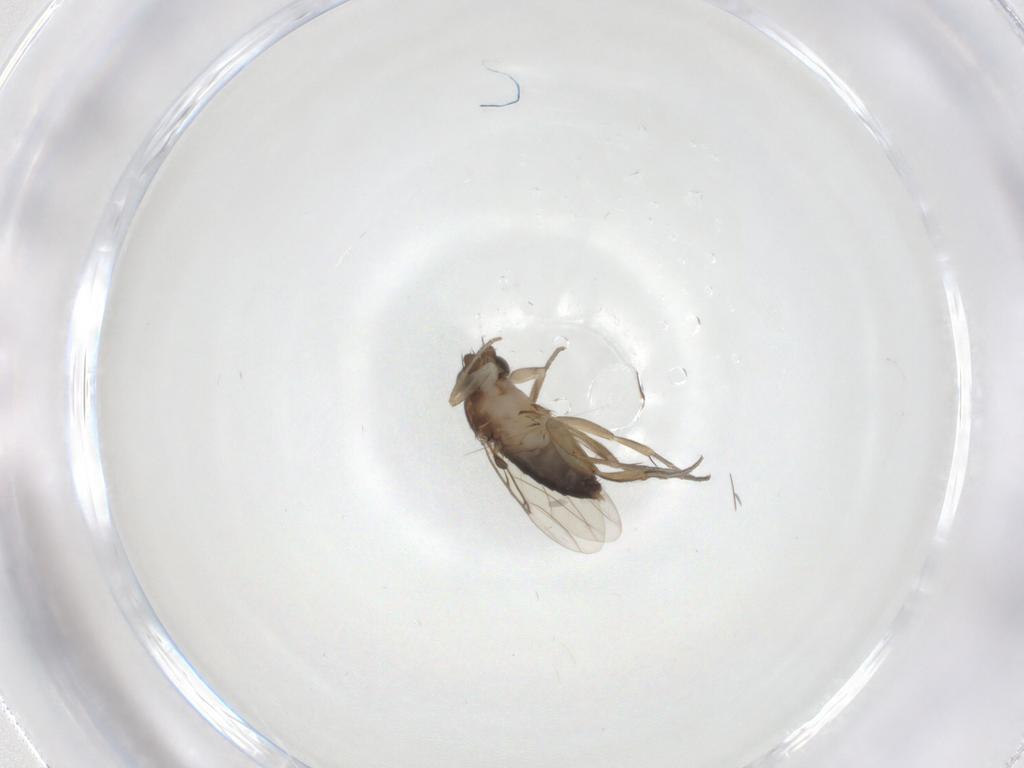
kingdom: Animalia
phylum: Arthropoda
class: Insecta
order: Diptera
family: Phoridae
